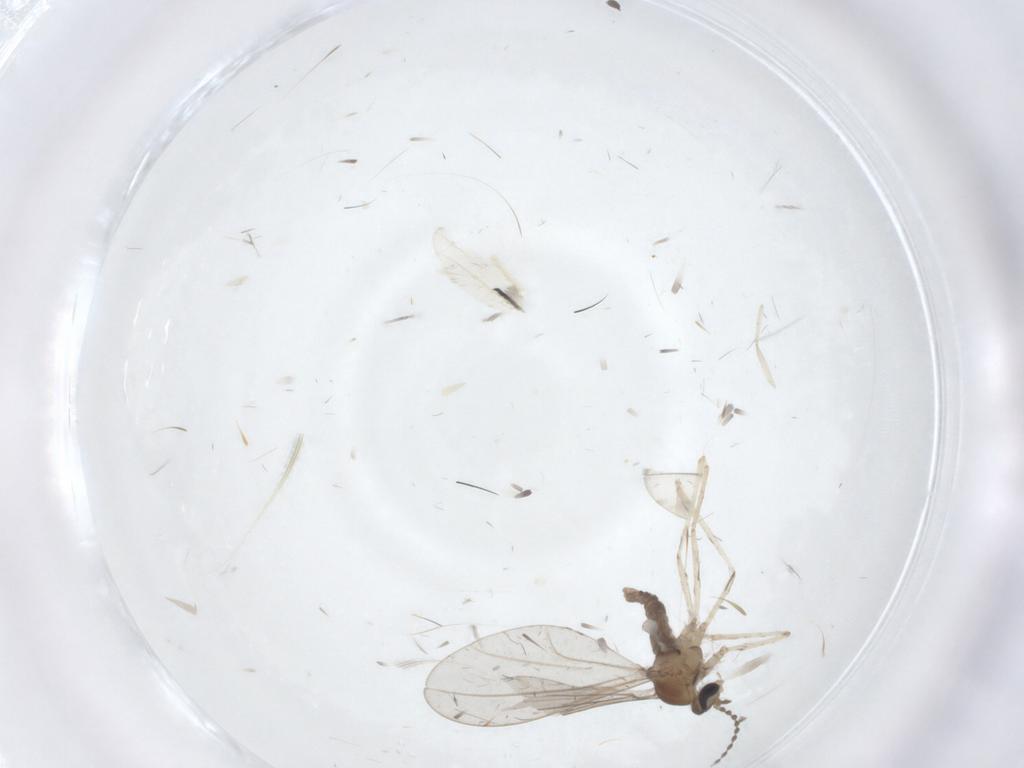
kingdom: Animalia
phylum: Arthropoda
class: Insecta
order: Diptera
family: Cecidomyiidae
